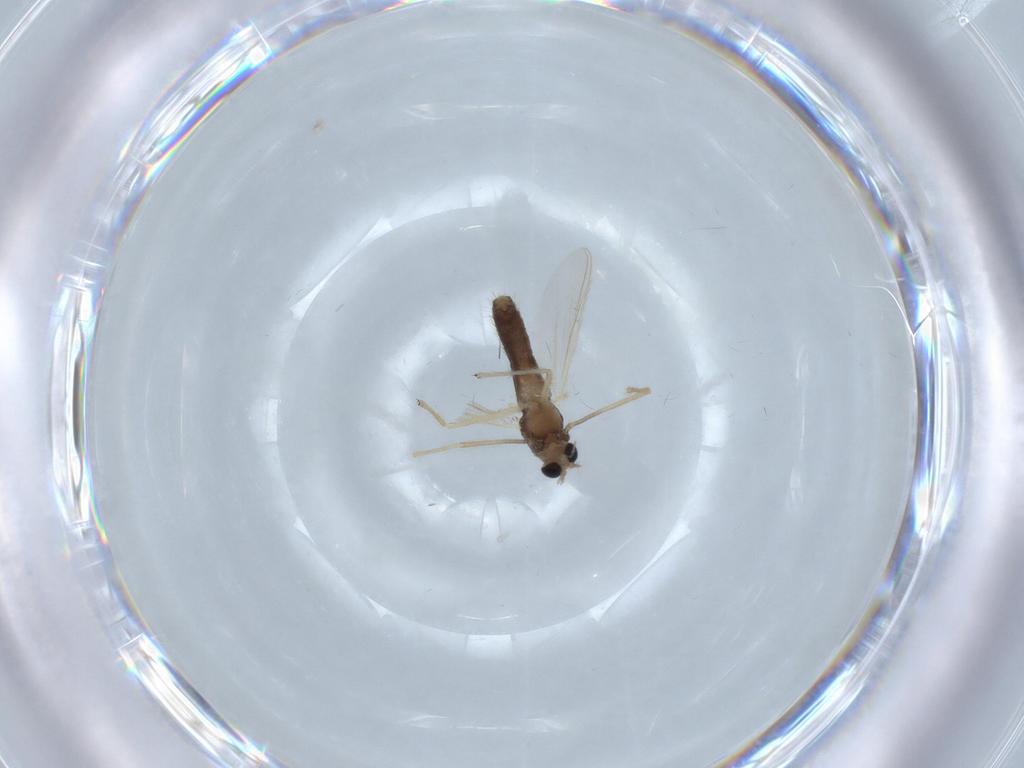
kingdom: Animalia
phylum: Arthropoda
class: Insecta
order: Diptera
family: Chironomidae
